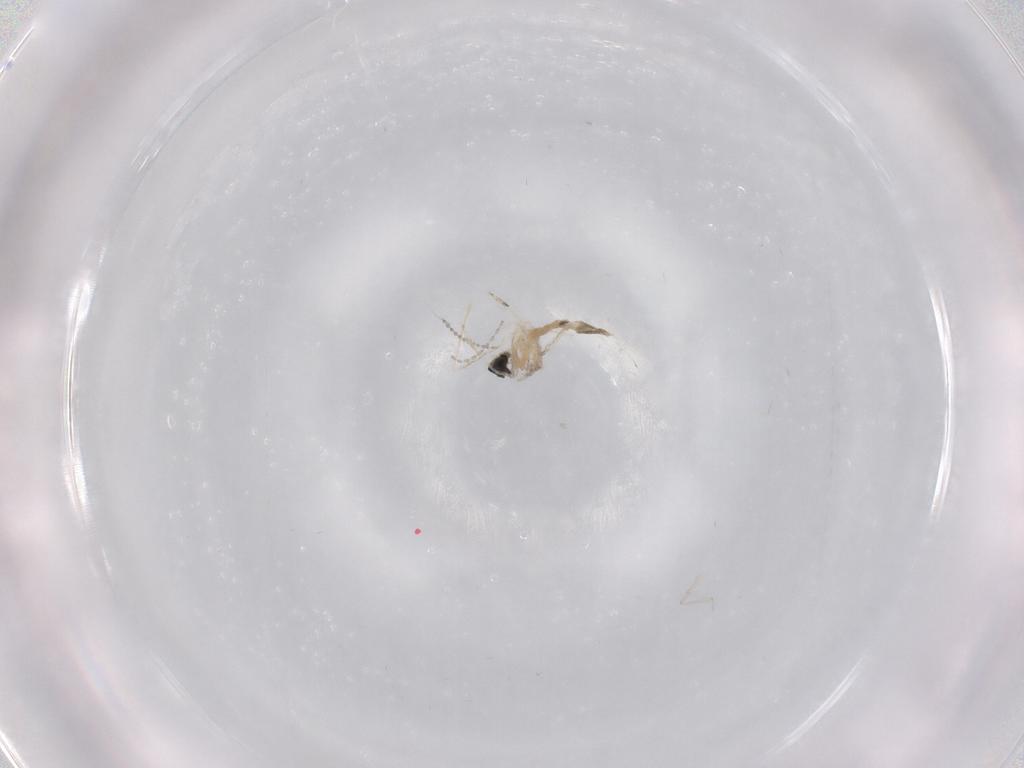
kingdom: Animalia
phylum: Arthropoda
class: Insecta
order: Diptera
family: Cecidomyiidae
